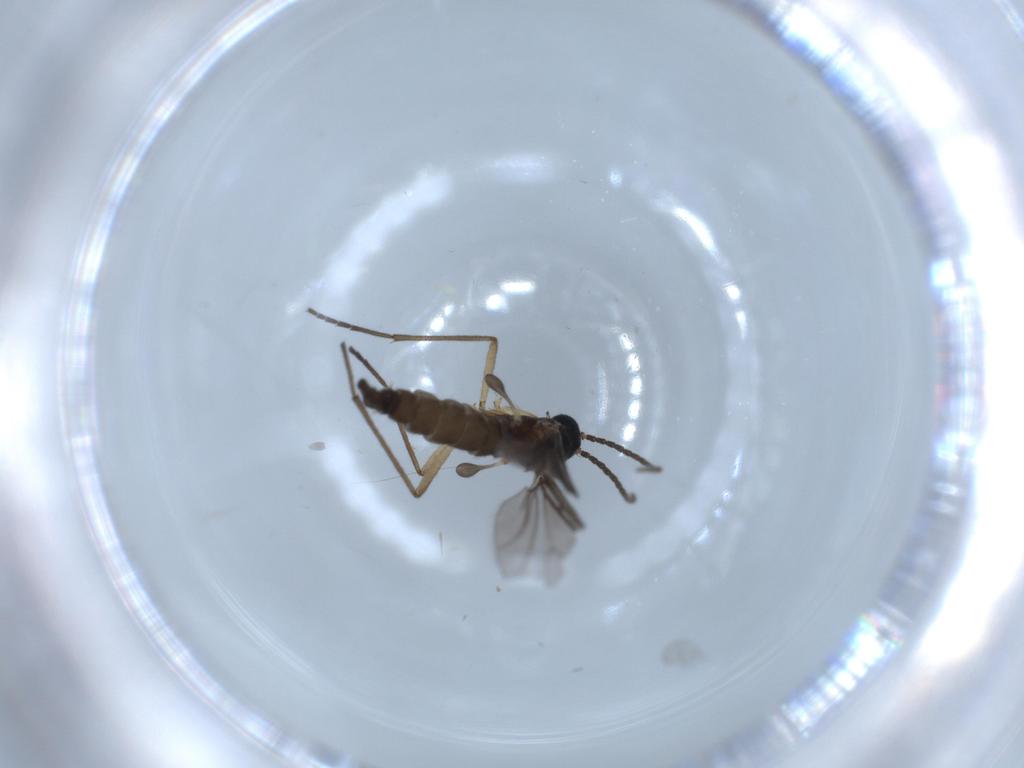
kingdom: Animalia
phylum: Arthropoda
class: Insecta
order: Diptera
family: Sciaridae
